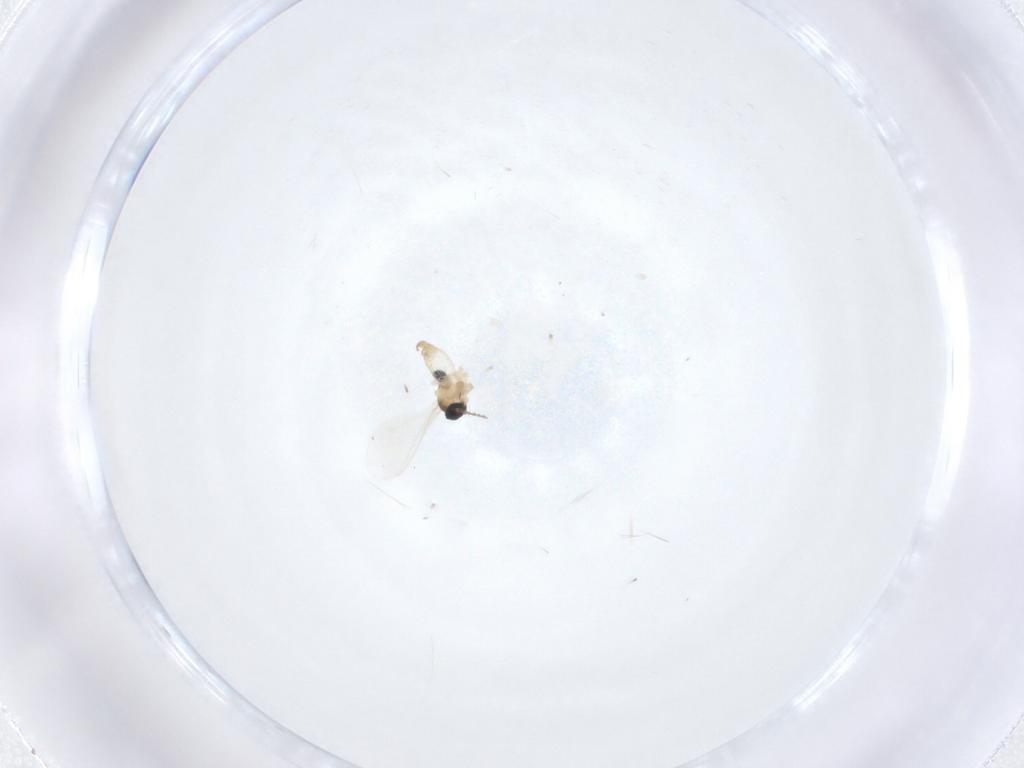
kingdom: Animalia
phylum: Arthropoda
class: Insecta
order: Diptera
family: Cecidomyiidae
